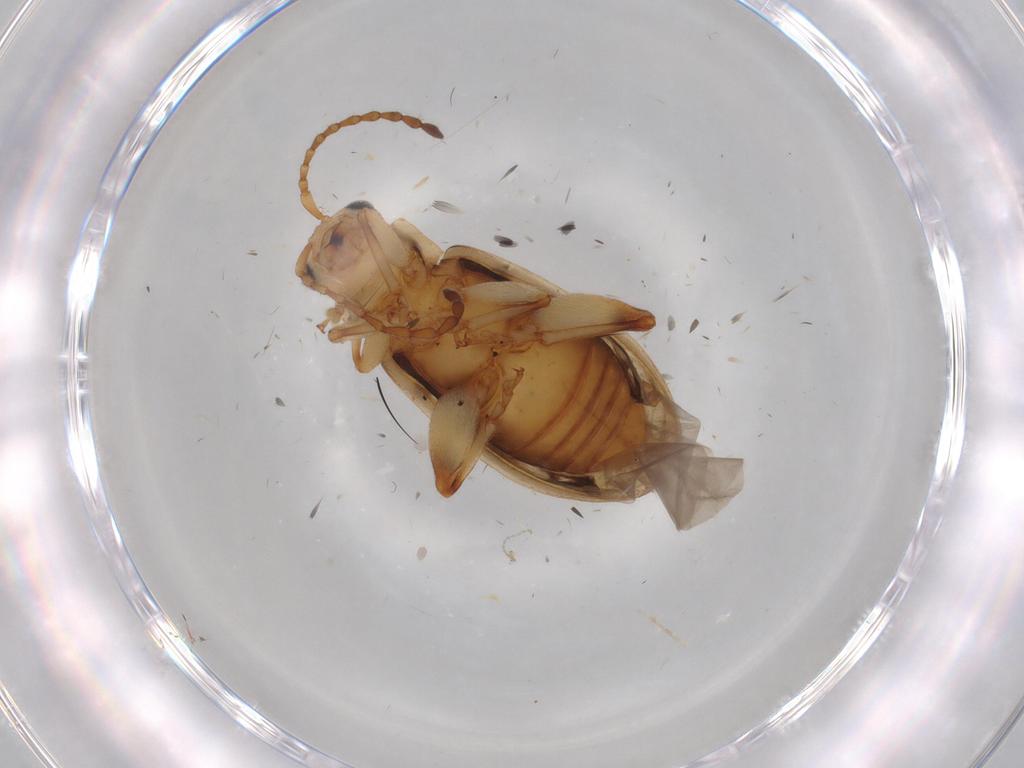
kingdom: Animalia
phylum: Arthropoda
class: Insecta
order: Coleoptera
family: Chrysomelidae
